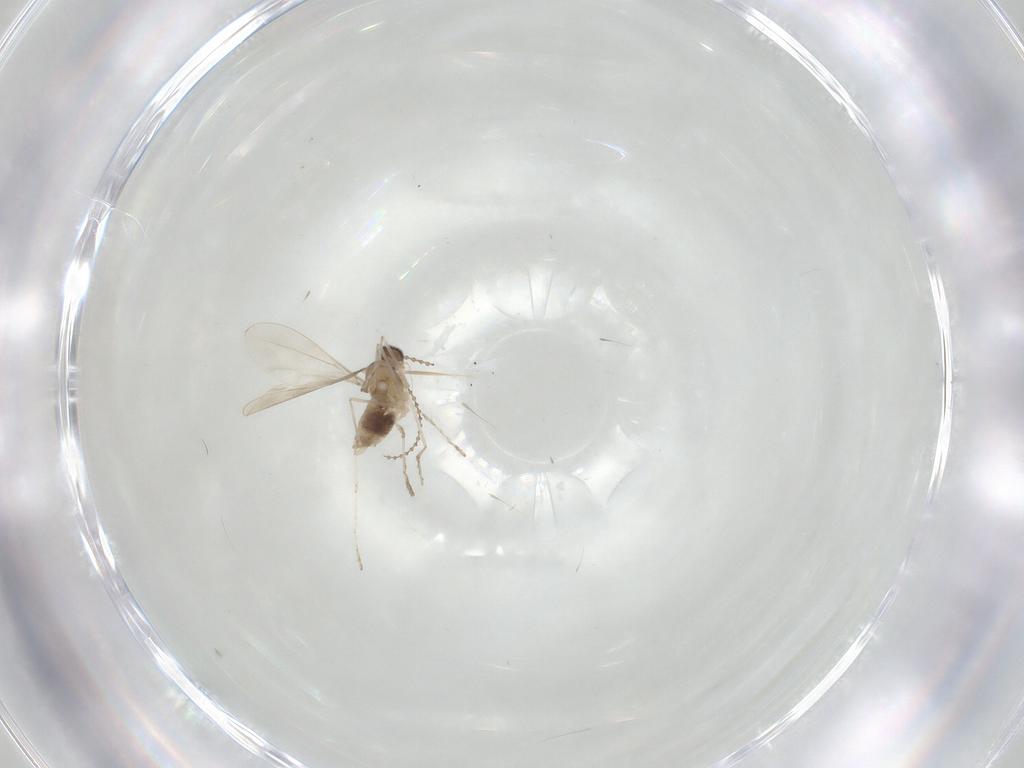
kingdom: Animalia
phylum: Arthropoda
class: Insecta
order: Diptera
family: Cecidomyiidae
